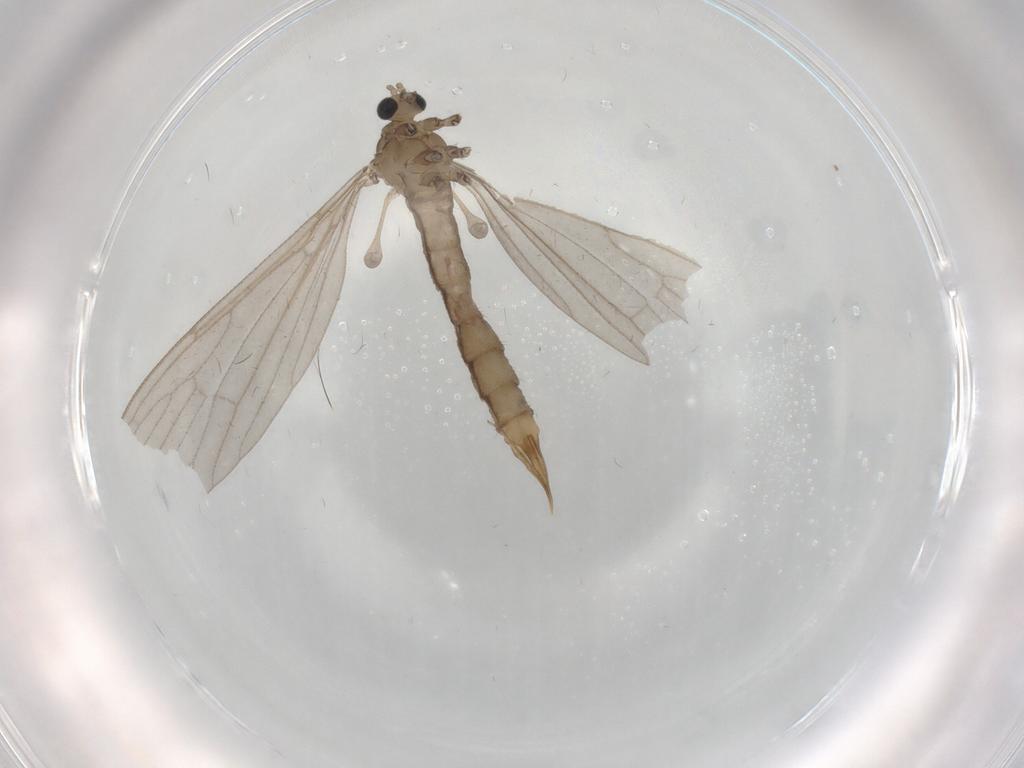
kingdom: Animalia
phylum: Arthropoda
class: Insecta
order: Diptera
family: Limoniidae
